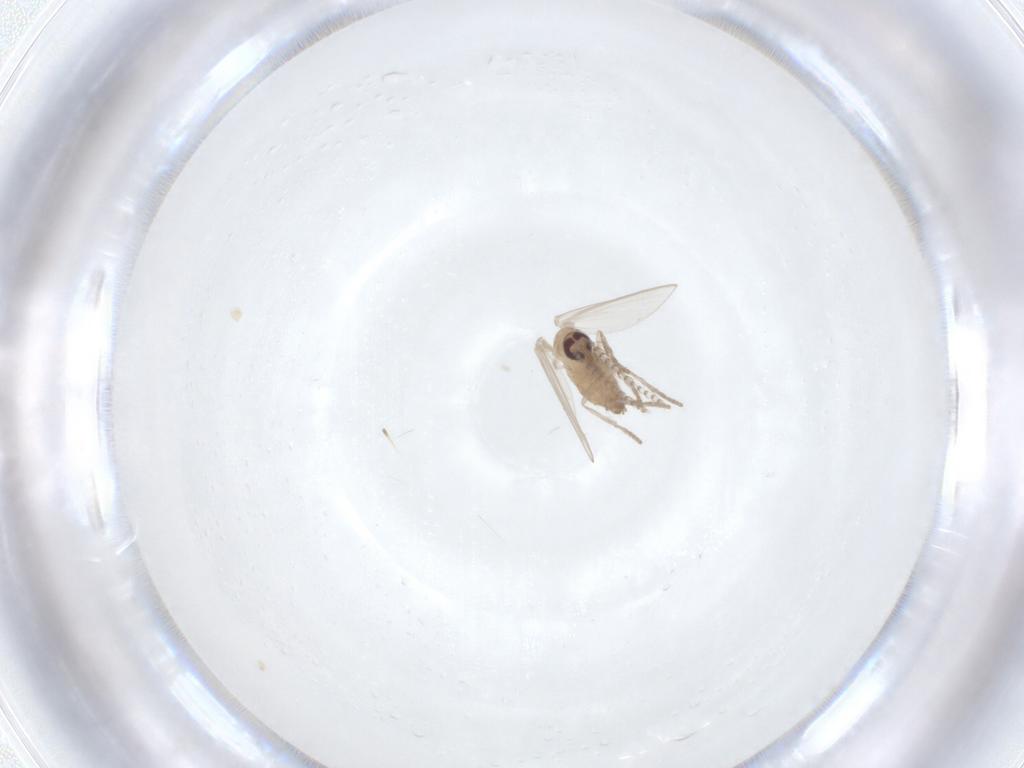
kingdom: Animalia
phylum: Arthropoda
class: Insecta
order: Diptera
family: Psychodidae
